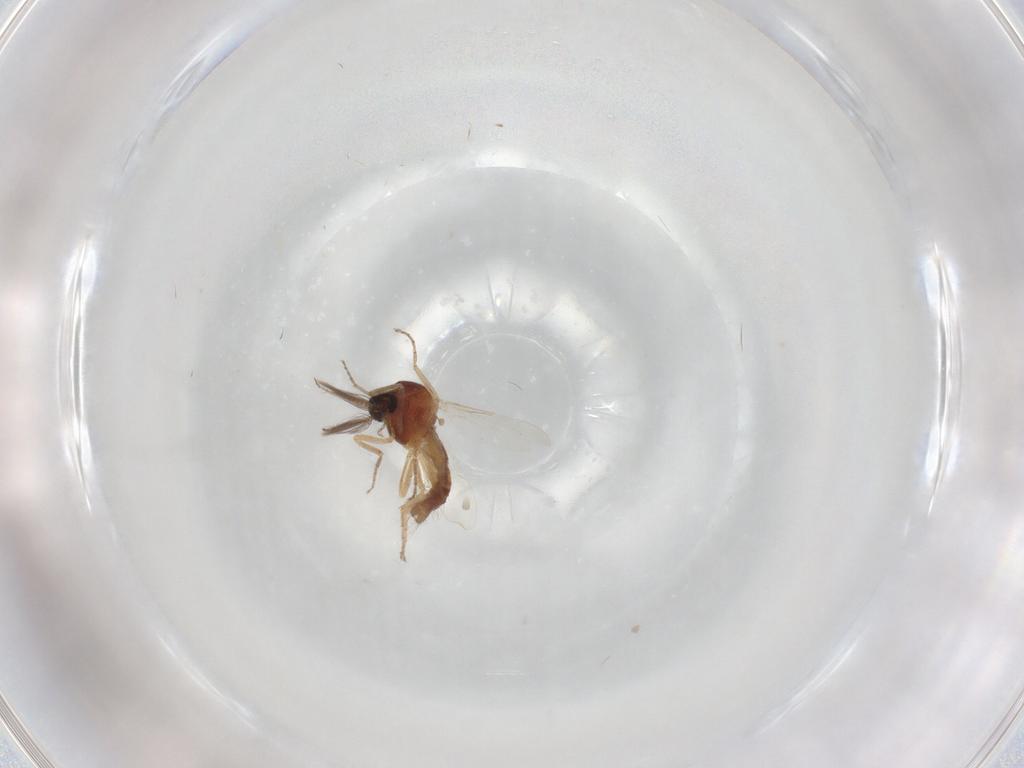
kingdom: Animalia
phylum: Arthropoda
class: Insecta
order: Diptera
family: Ceratopogonidae
